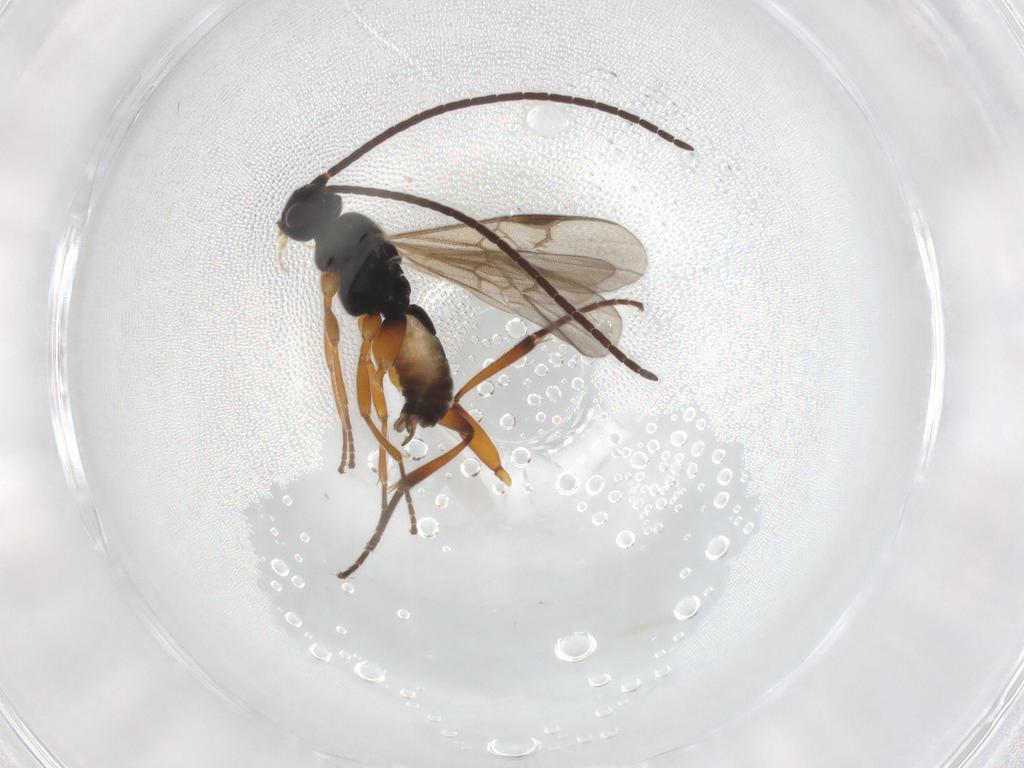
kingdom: Animalia
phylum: Arthropoda
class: Insecta
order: Hymenoptera
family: Braconidae
